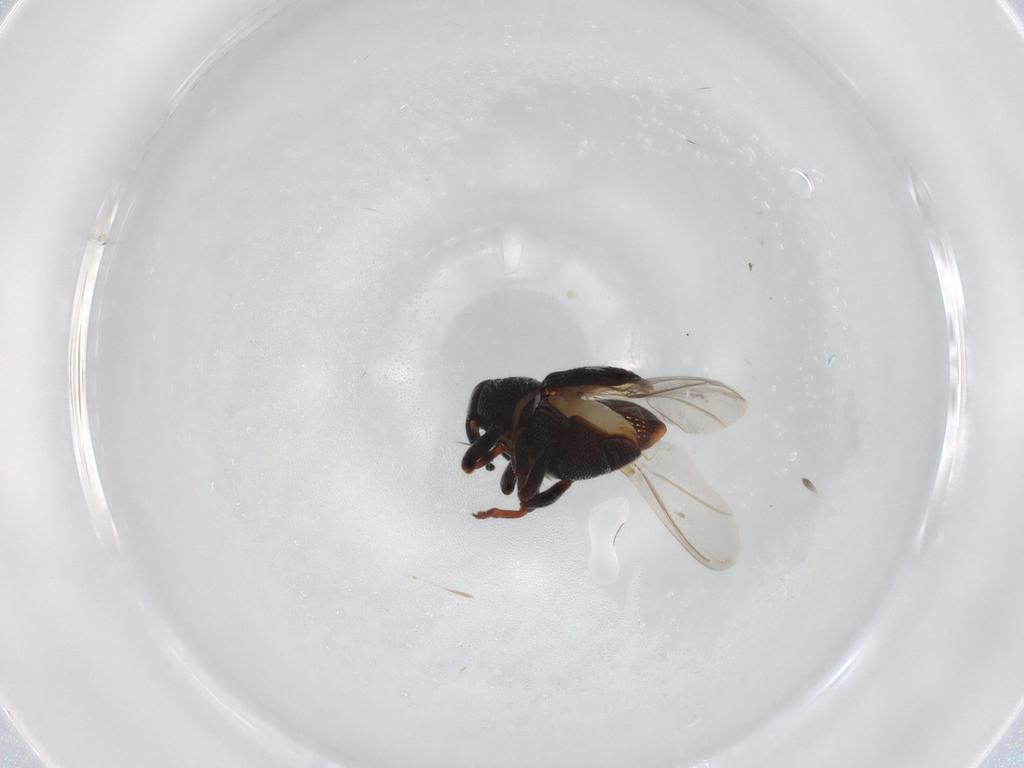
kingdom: Animalia
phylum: Arthropoda
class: Insecta
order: Coleoptera
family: Curculionidae
